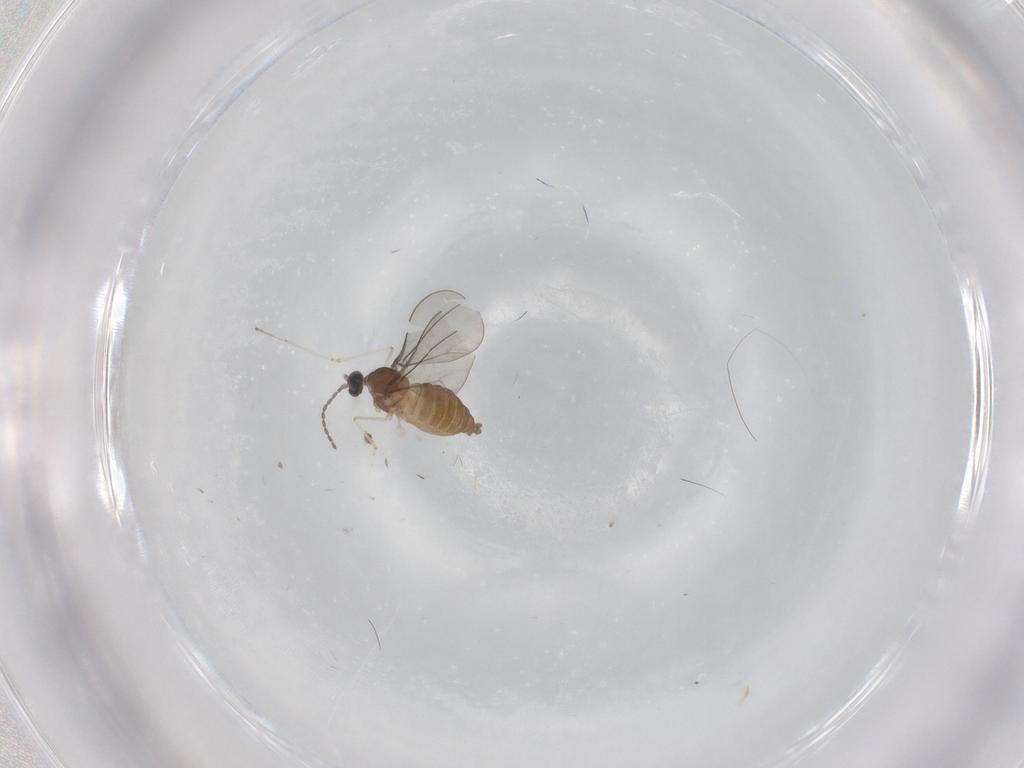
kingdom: Animalia
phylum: Arthropoda
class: Insecta
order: Diptera
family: Cecidomyiidae
